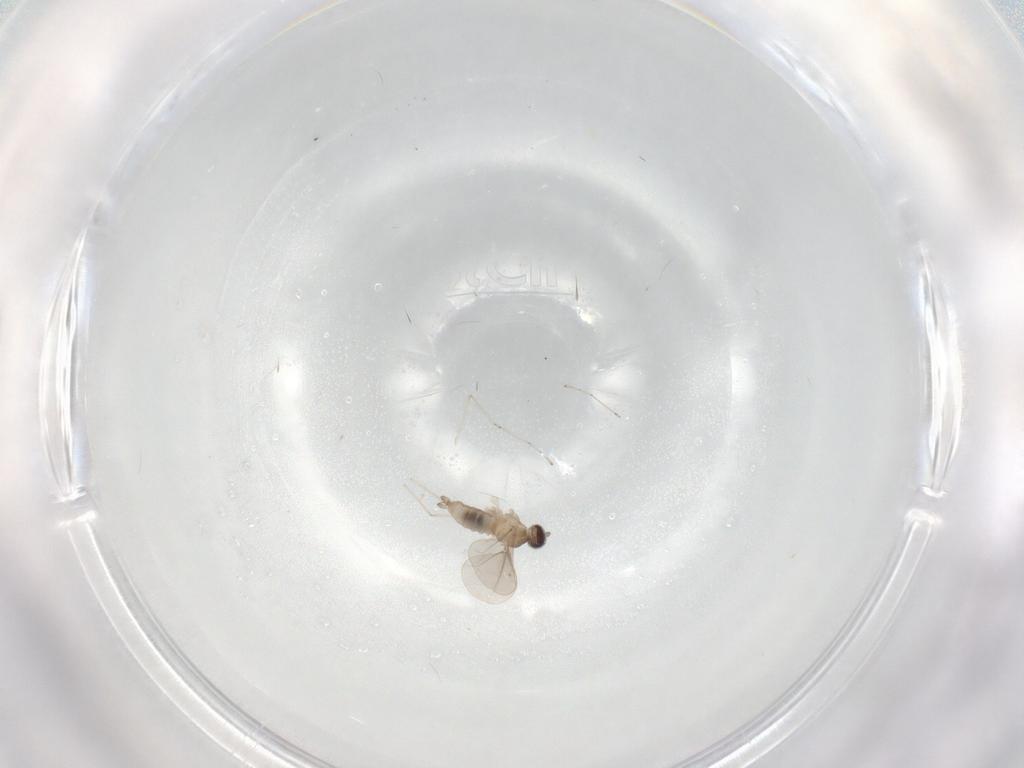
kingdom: Animalia
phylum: Arthropoda
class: Insecta
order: Diptera
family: Cecidomyiidae
